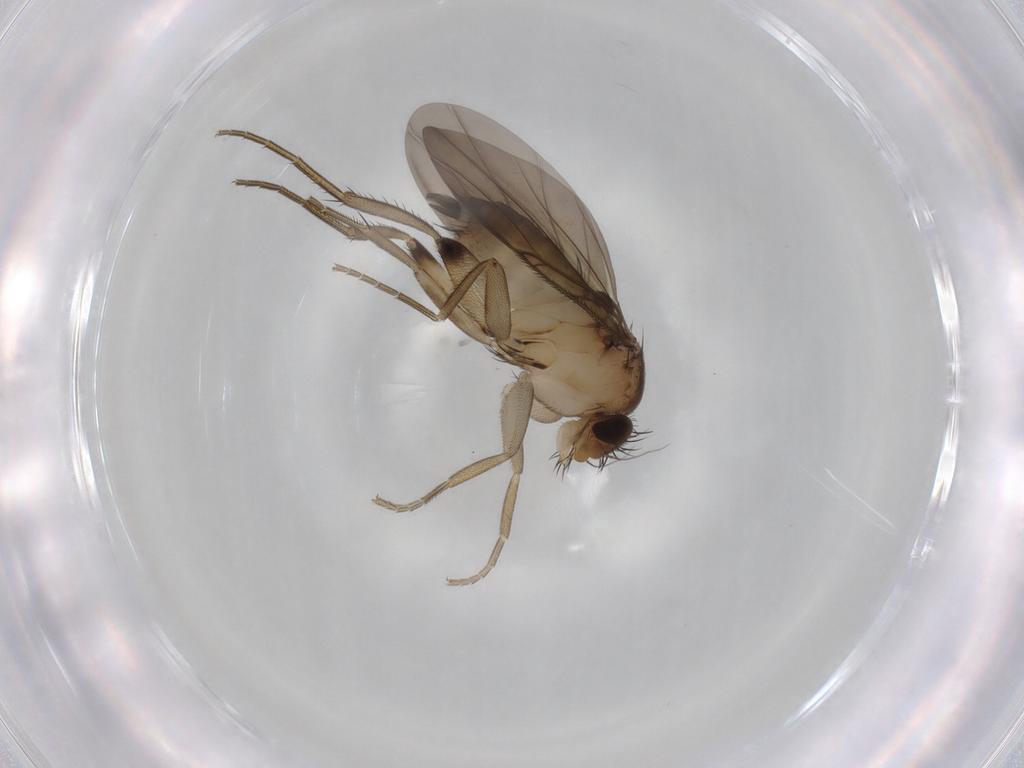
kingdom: Animalia
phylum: Arthropoda
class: Insecta
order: Diptera
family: Phoridae
